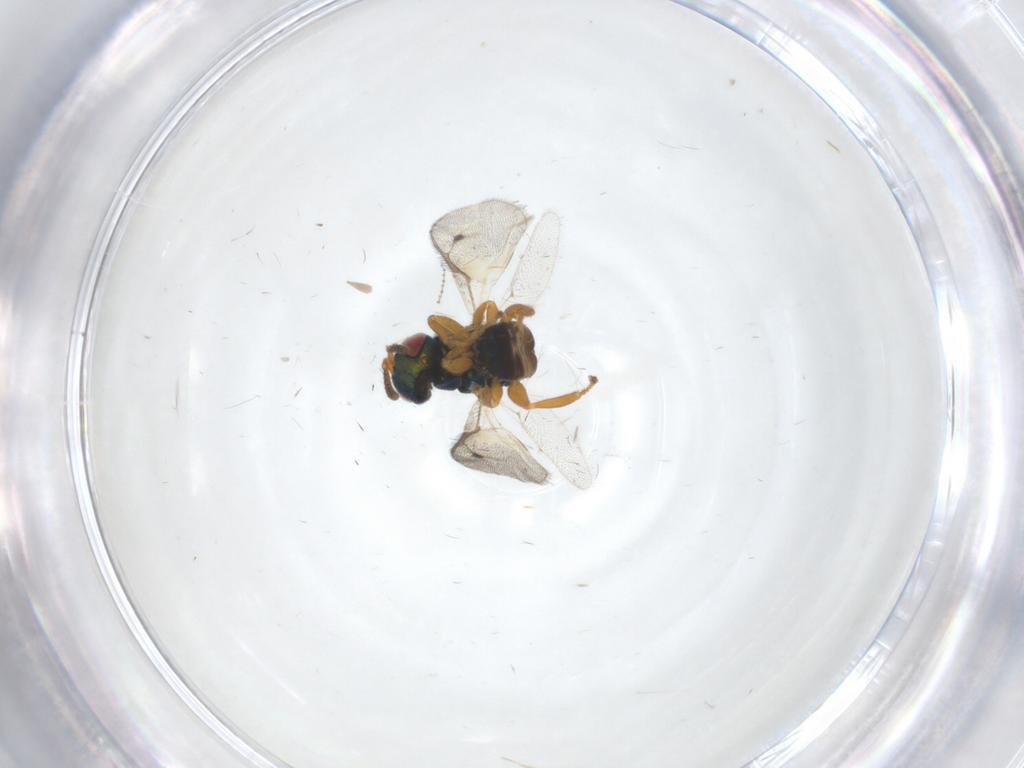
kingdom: Animalia
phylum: Arthropoda
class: Insecta
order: Hymenoptera
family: Pteromalidae
